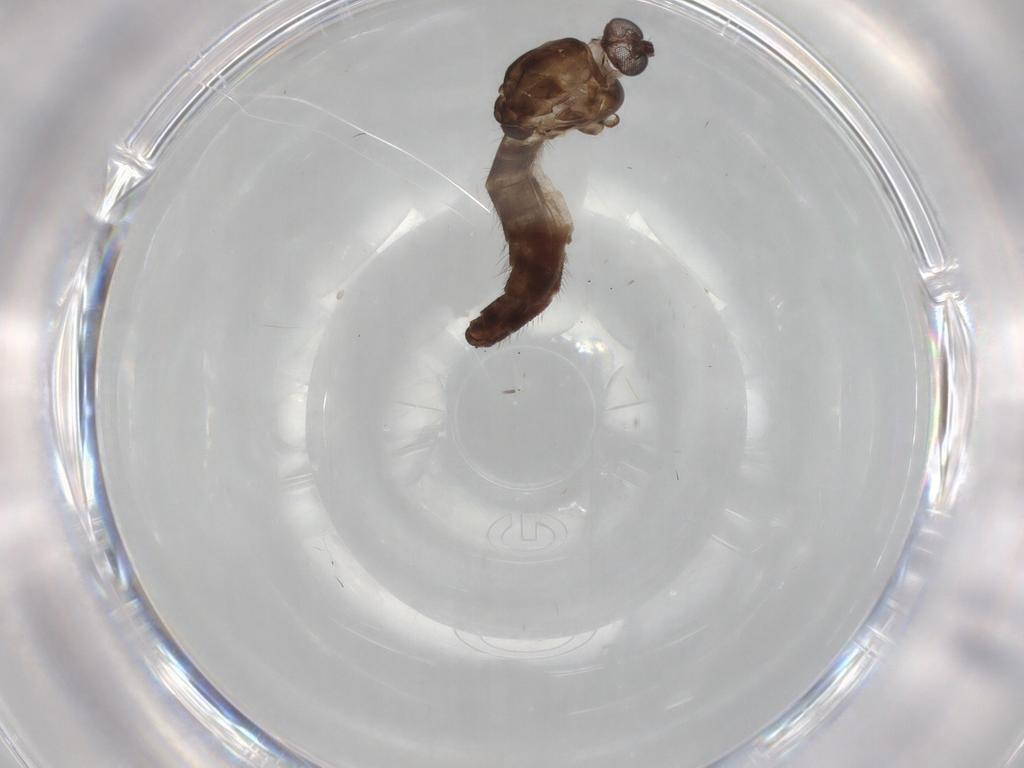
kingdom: Animalia
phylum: Arthropoda
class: Insecta
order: Diptera
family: Chironomidae
